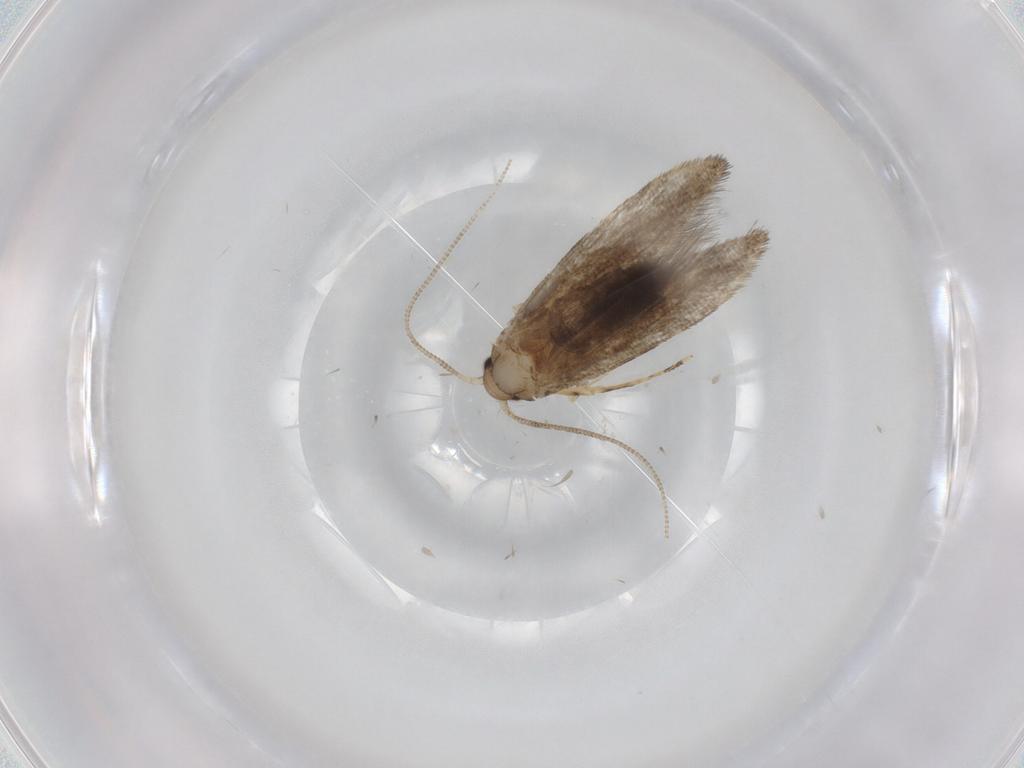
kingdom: Animalia
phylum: Arthropoda
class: Insecta
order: Lepidoptera
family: Tineidae
